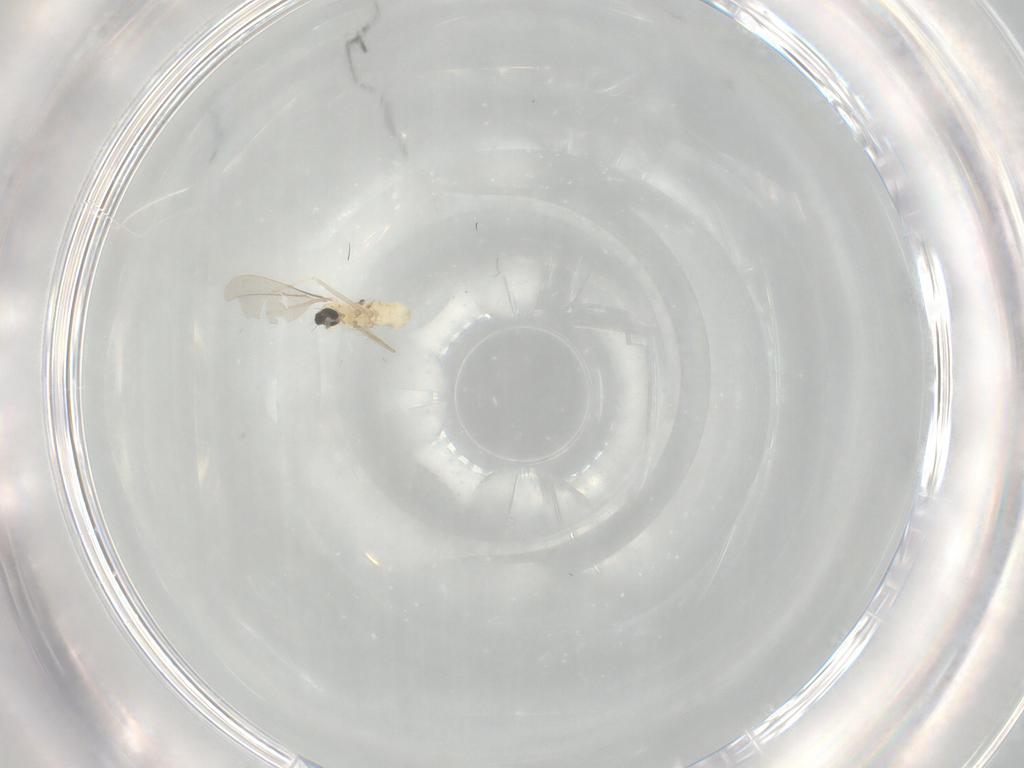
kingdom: Animalia
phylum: Arthropoda
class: Insecta
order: Diptera
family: Cecidomyiidae
